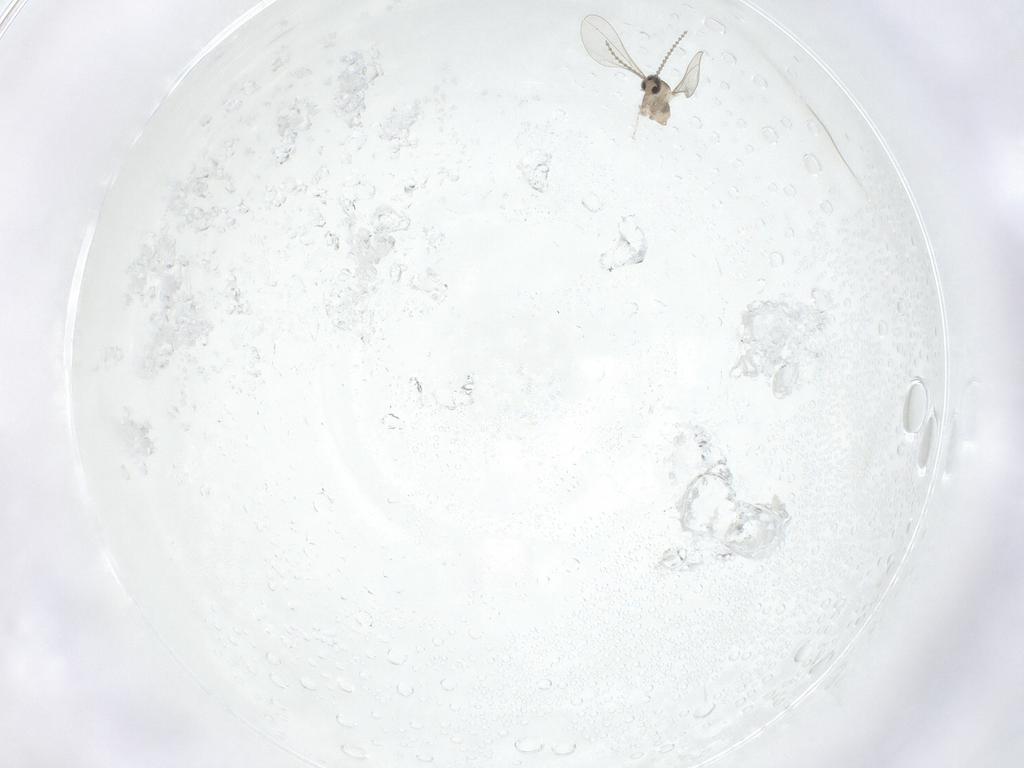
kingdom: Animalia
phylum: Arthropoda
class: Insecta
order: Diptera
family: Cecidomyiidae
